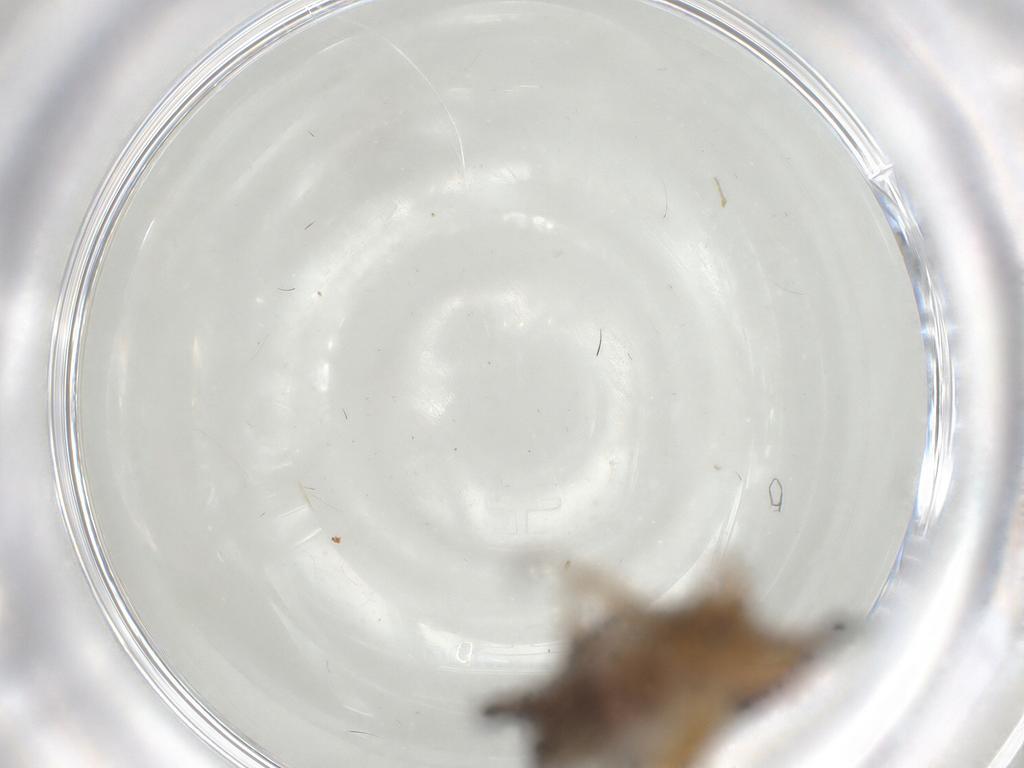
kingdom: Animalia
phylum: Arthropoda
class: Insecta
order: Diptera
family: Hybotidae
